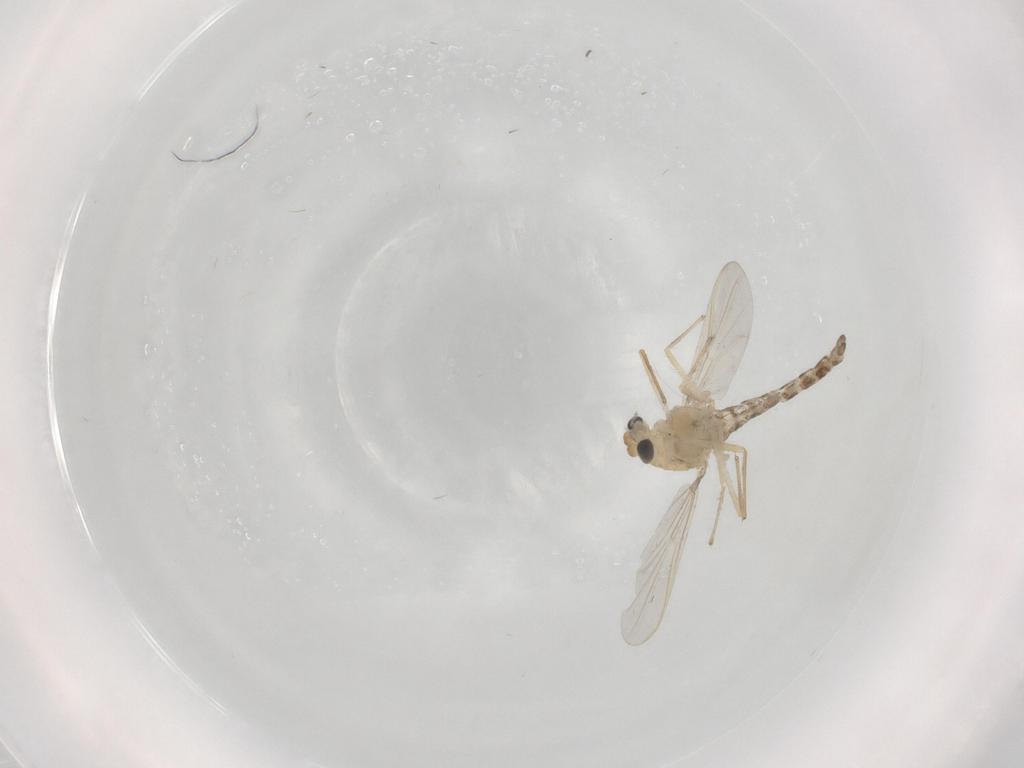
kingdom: Animalia
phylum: Arthropoda
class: Insecta
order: Diptera
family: Chironomidae
